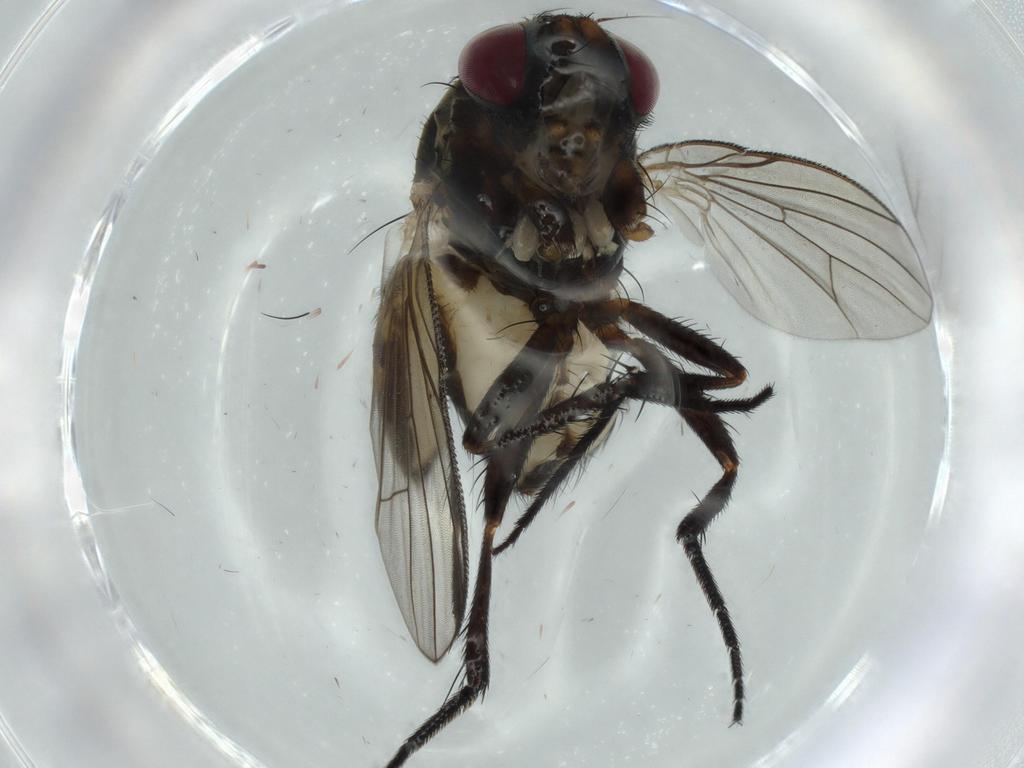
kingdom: Animalia
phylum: Arthropoda
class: Insecta
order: Diptera
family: Phoridae
